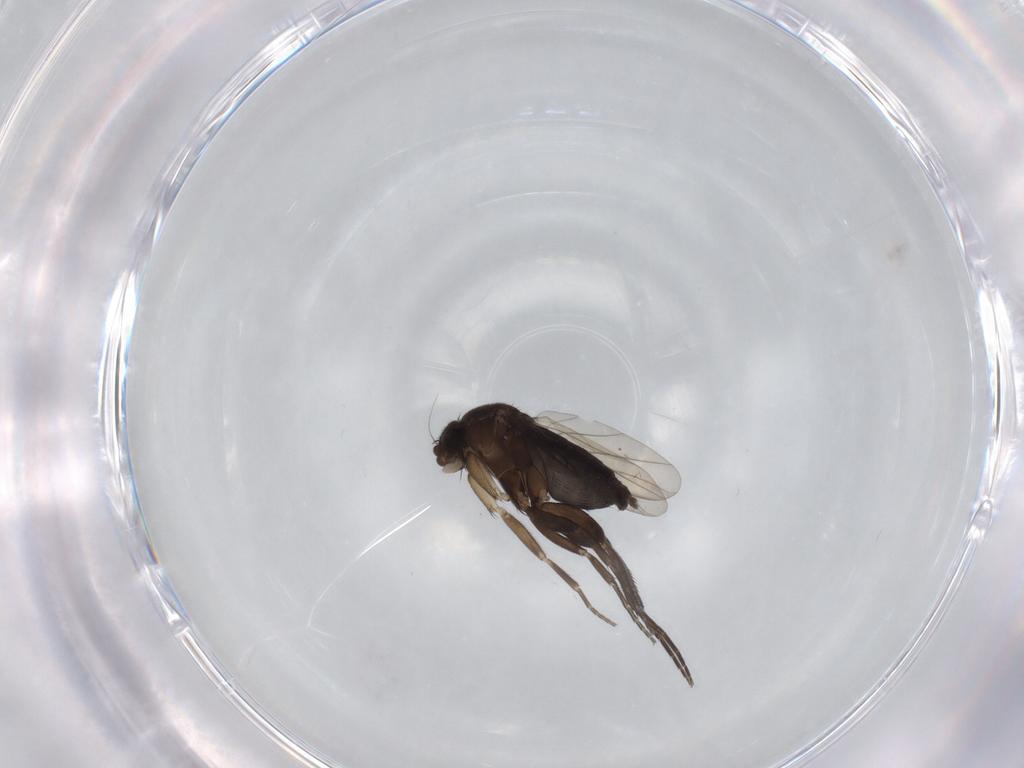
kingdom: Animalia
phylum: Arthropoda
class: Insecta
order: Diptera
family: Phoridae
